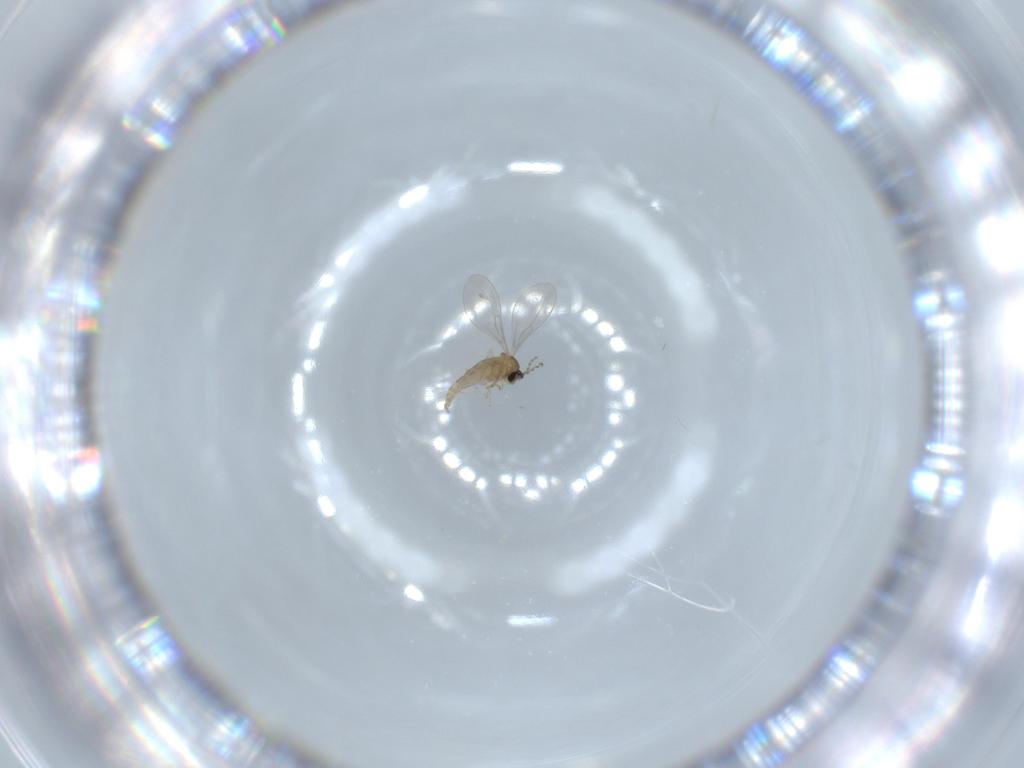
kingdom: Animalia
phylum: Arthropoda
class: Insecta
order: Diptera
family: Cecidomyiidae
